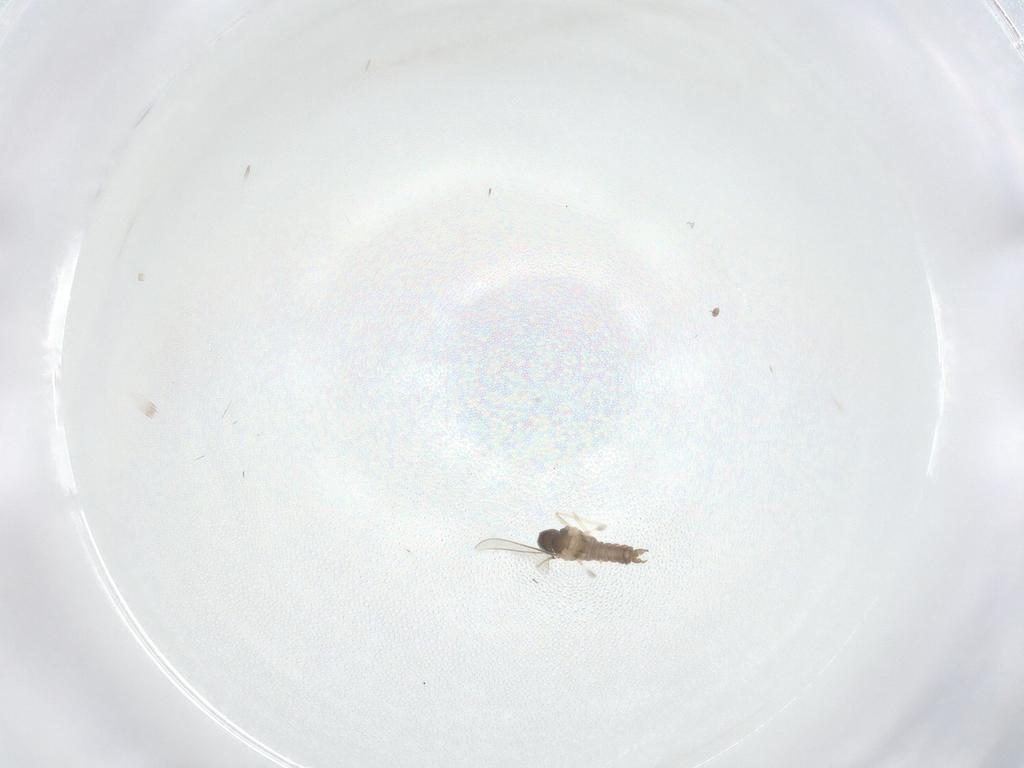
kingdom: Animalia
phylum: Arthropoda
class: Insecta
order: Diptera
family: Cecidomyiidae
